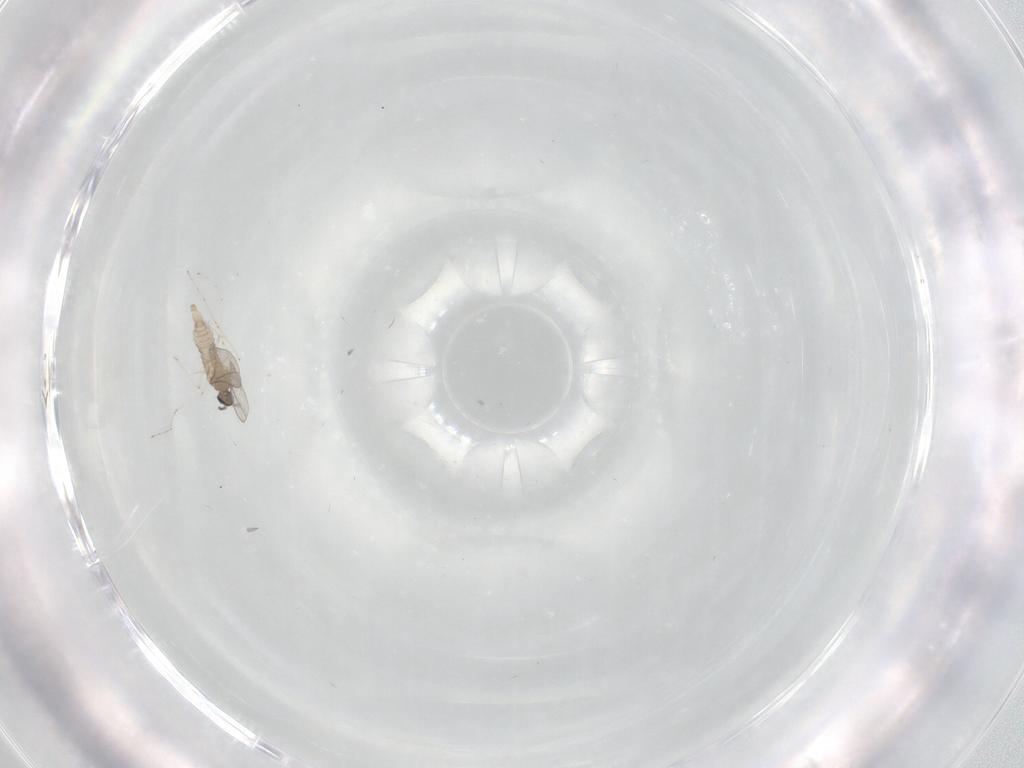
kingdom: Animalia
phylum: Arthropoda
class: Insecta
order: Diptera
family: Cecidomyiidae
